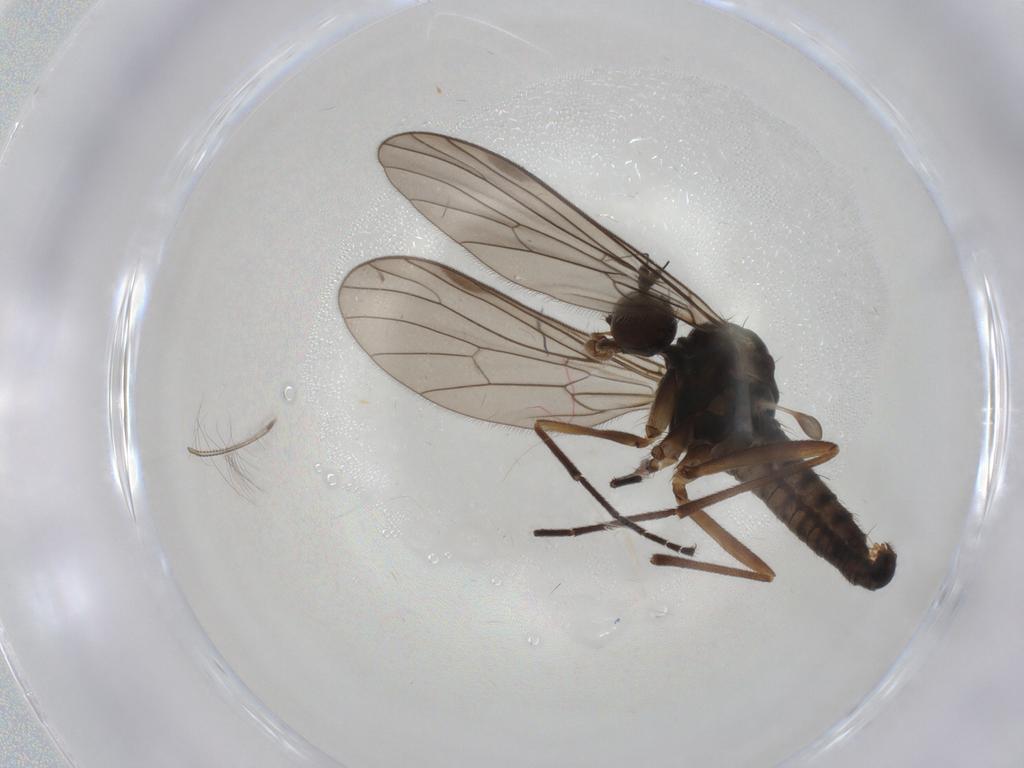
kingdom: Animalia
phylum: Arthropoda
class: Insecta
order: Diptera
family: Empididae
